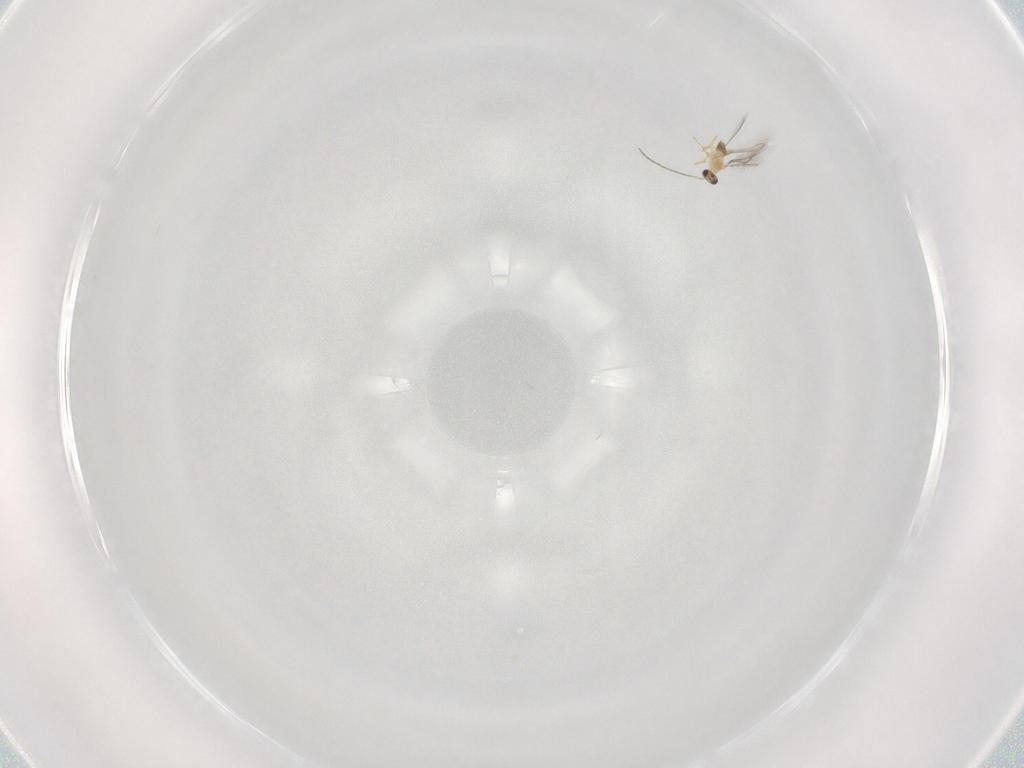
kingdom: Animalia
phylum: Arthropoda
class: Insecta
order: Hymenoptera
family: Mymaridae
